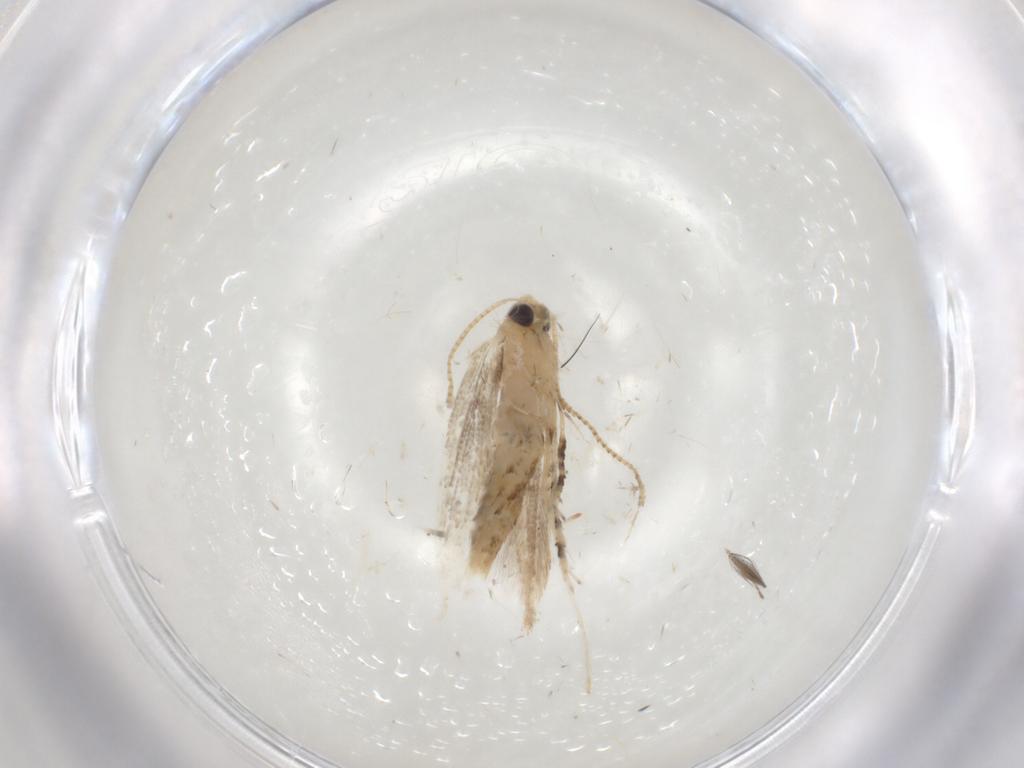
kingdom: Animalia
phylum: Arthropoda
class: Insecta
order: Lepidoptera
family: Gracillariidae
